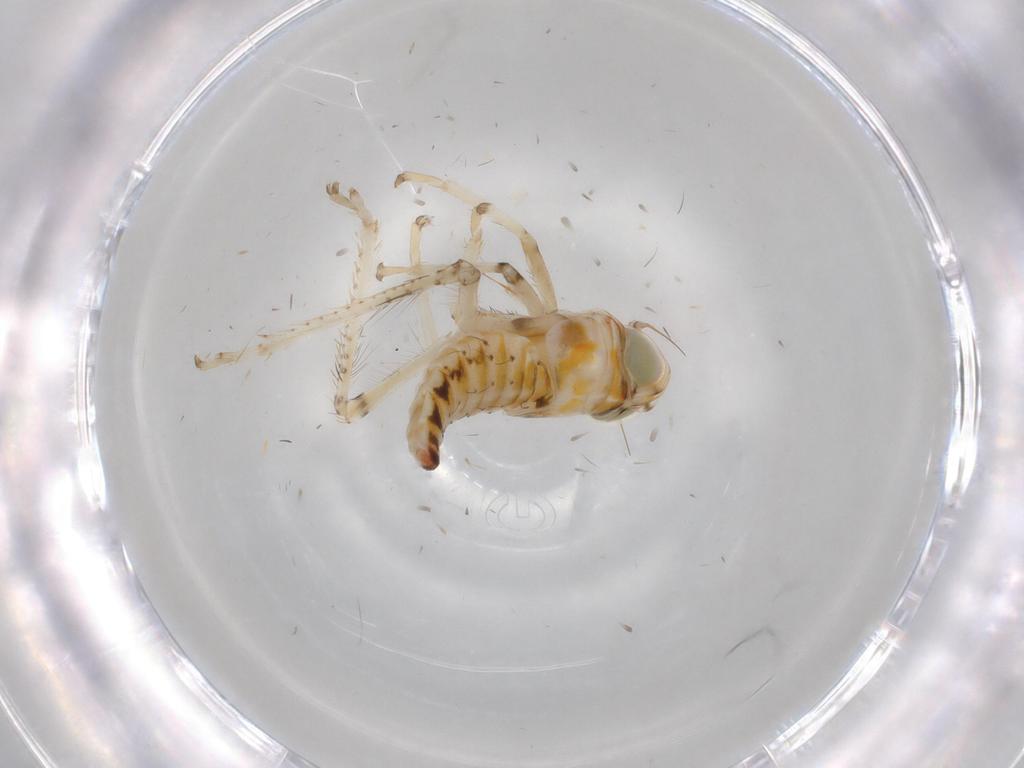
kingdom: Animalia
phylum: Arthropoda
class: Insecta
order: Hemiptera
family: Cicadellidae
